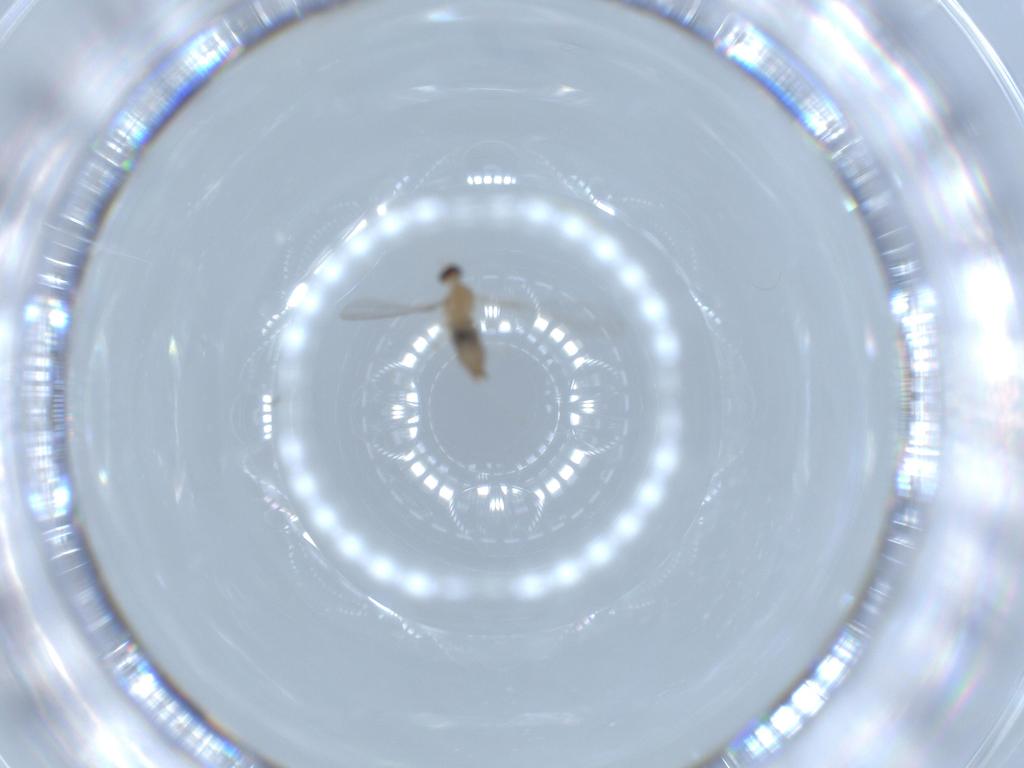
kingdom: Animalia
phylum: Arthropoda
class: Insecta
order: Diptera
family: Cecidomyiidae
